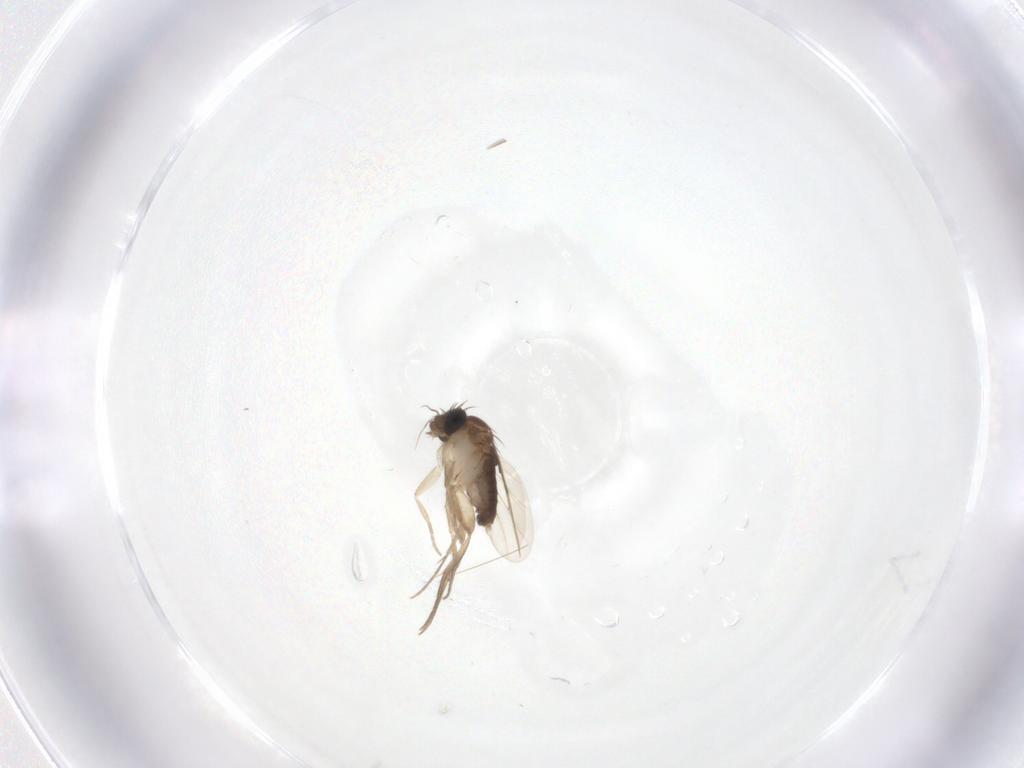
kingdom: Animalia
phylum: Arthropoda
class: Insecta
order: Diptera
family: Phoridae
